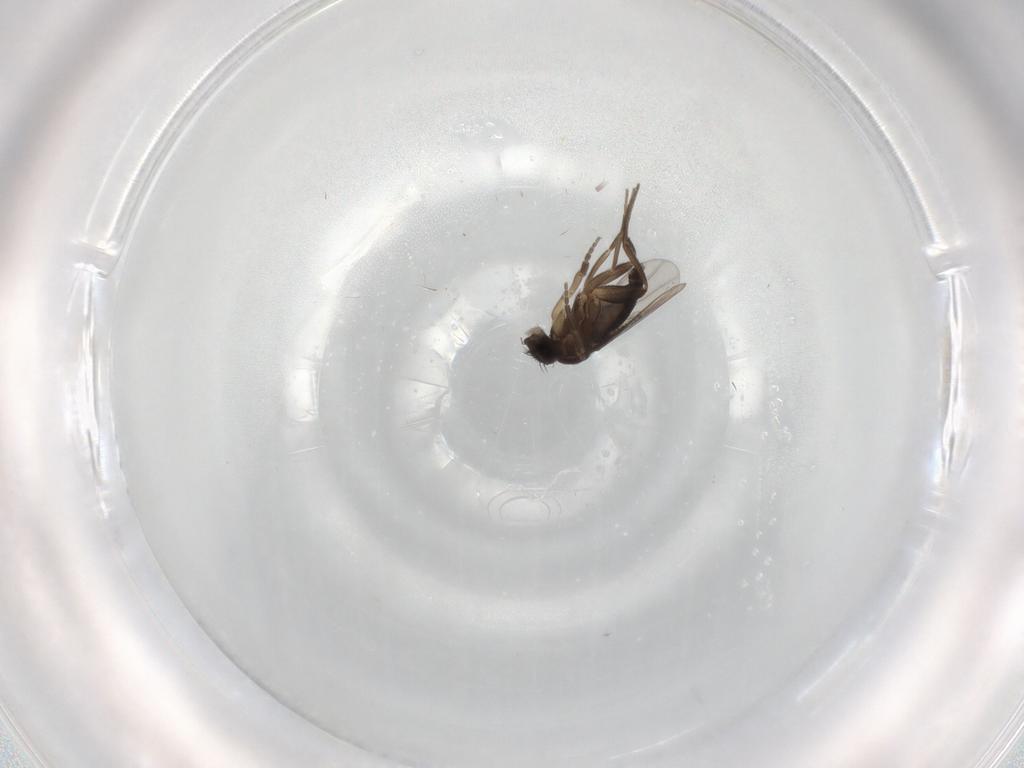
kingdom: Animalia
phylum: Arthropoda
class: Insecta
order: Diptera
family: Phoridae
